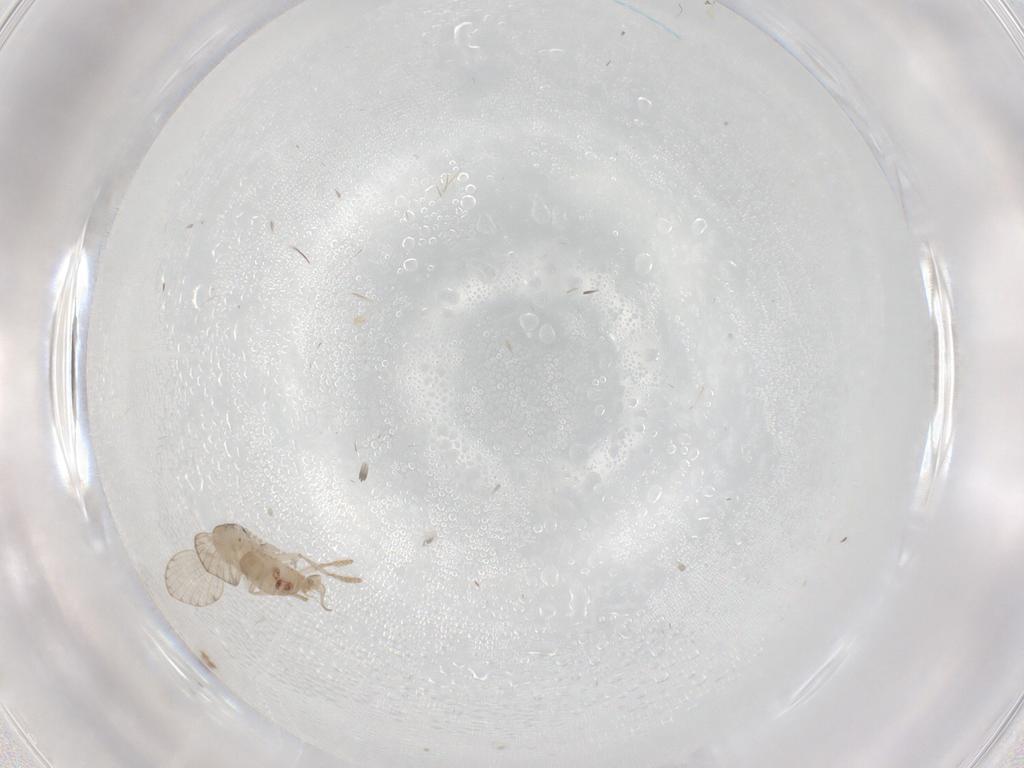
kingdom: Animalia
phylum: Arthropoda
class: Insecta
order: Diptera
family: Psychodidae
